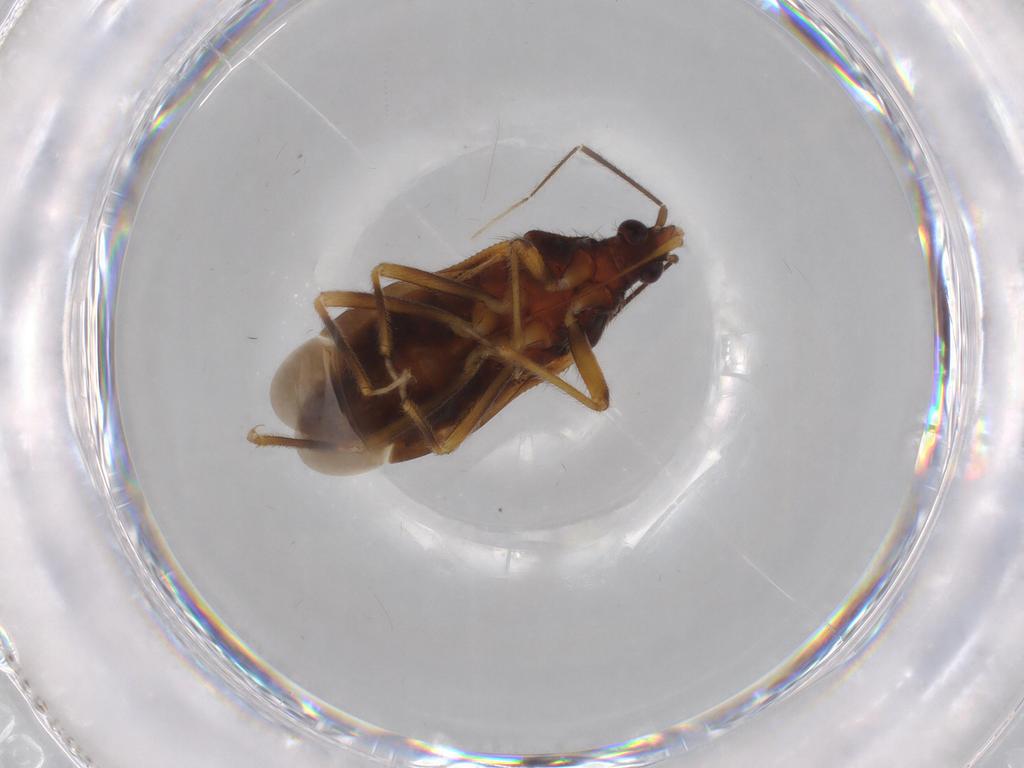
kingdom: Animalia
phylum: Arthropoda
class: Insecta
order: Hemiptera
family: Anthocoridae
